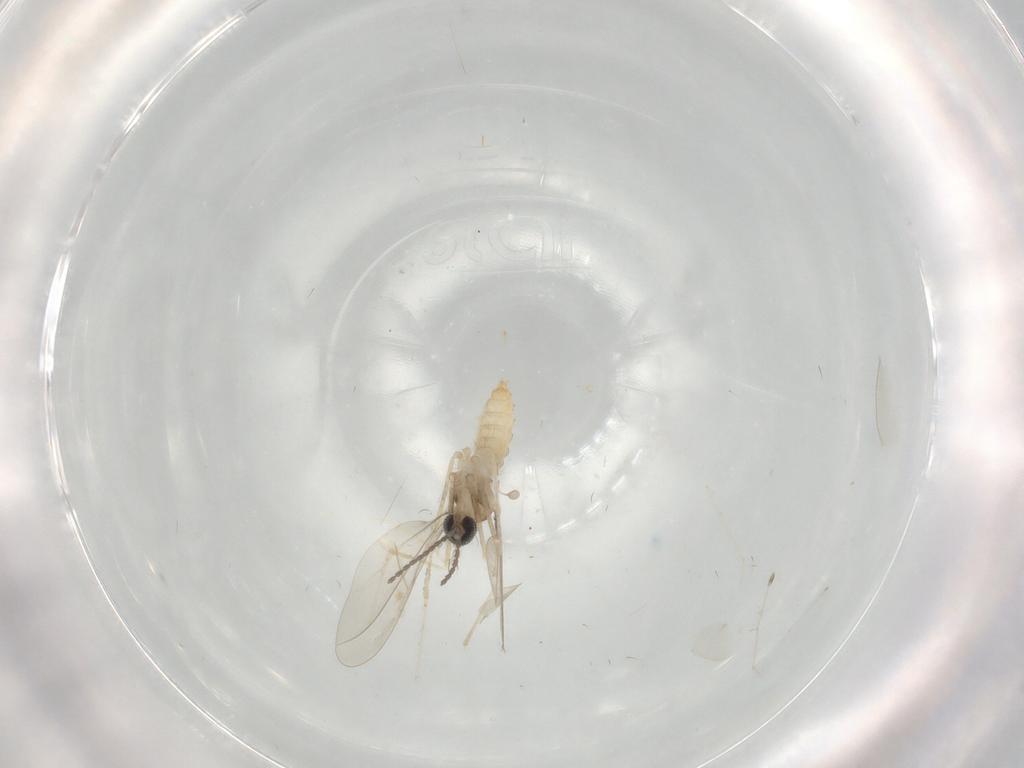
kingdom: Animalia
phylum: Arthropoda
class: Insecta
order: Diptera
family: Cecidomyiidae
